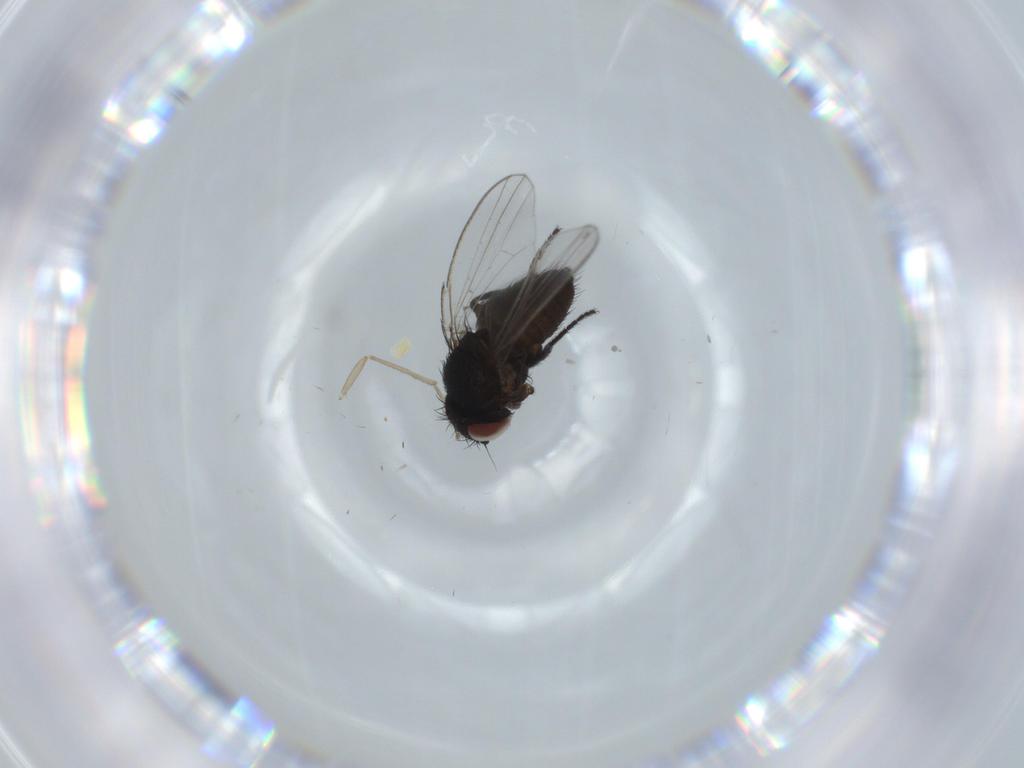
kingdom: Animalia
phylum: Arthropoda
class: Insecta
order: Diptera
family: Milichiidae
